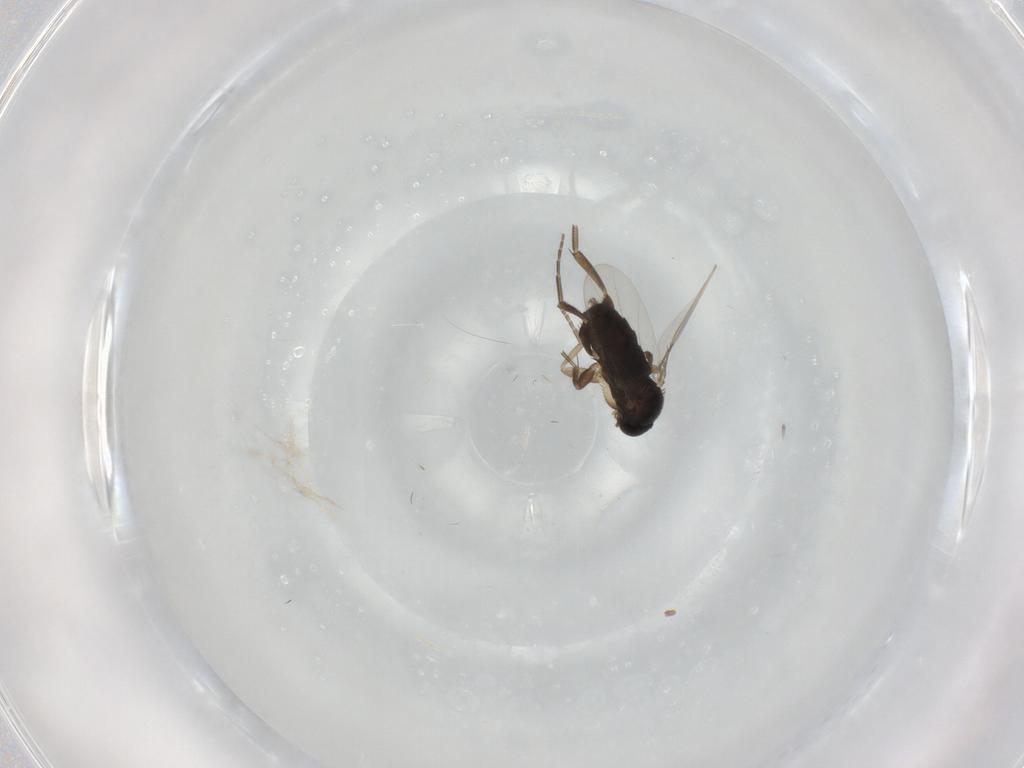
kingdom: Animalia
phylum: Arthropoda
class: Insecta
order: Diptera
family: Phoridae
